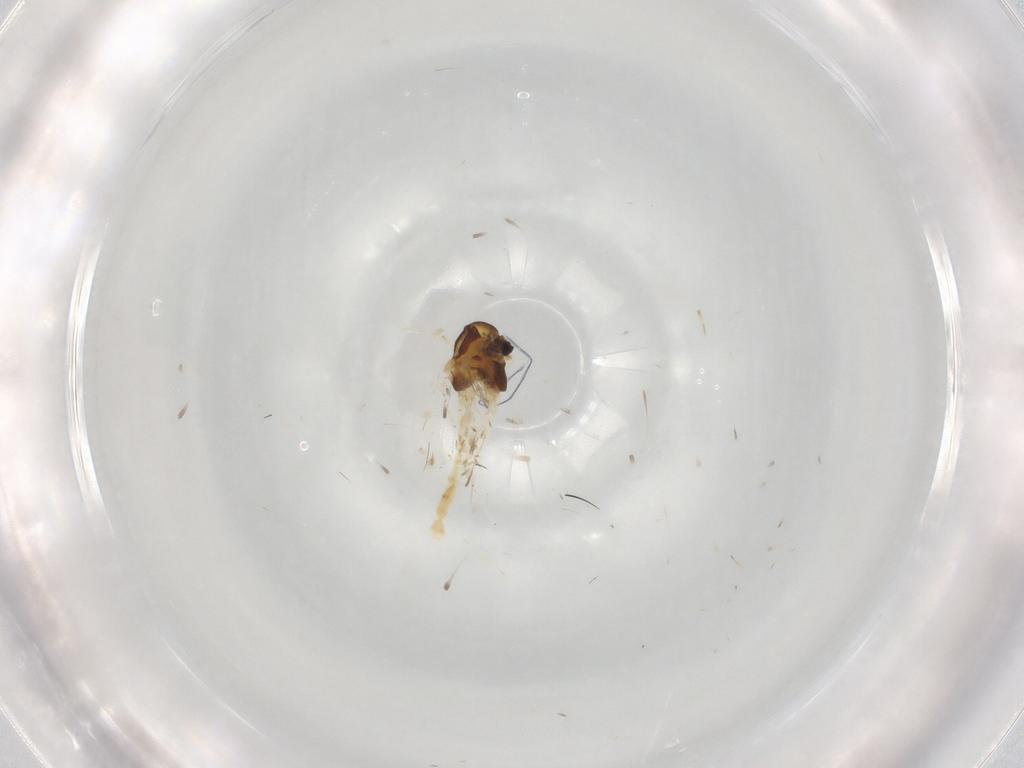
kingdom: Animalia
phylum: Arthropoda
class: Insecta
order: Diptera
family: Chironomidae
